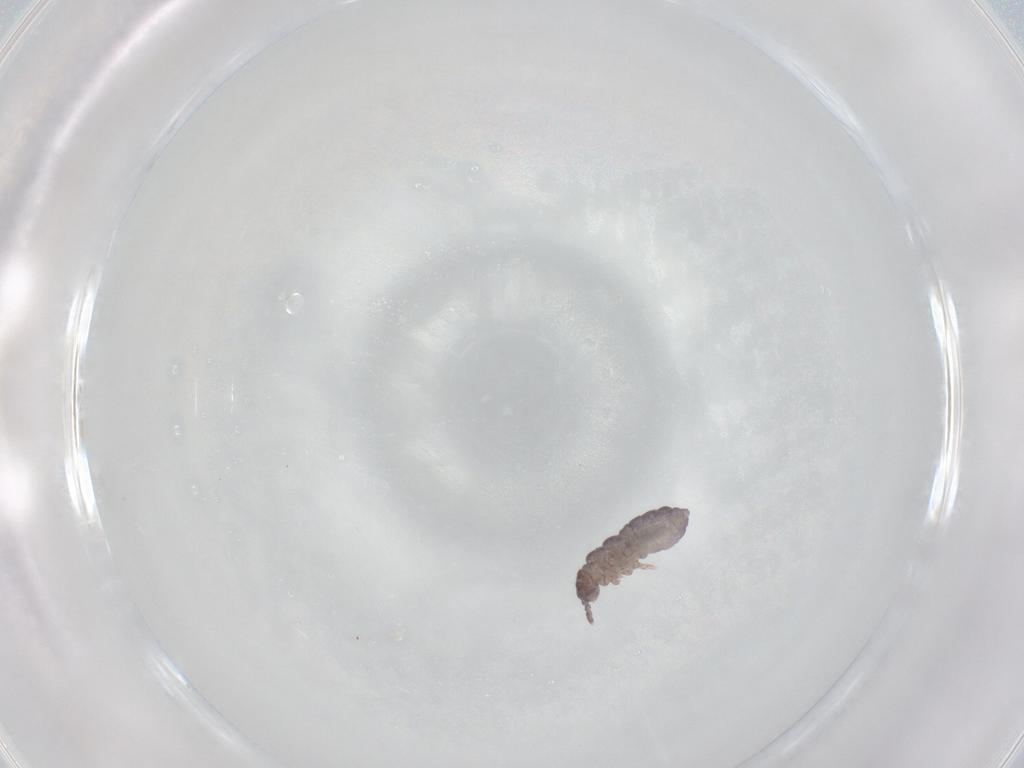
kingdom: Animalia
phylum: Arthropoda
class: Collembola
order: Poduromorpha
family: Hypogastruridae
